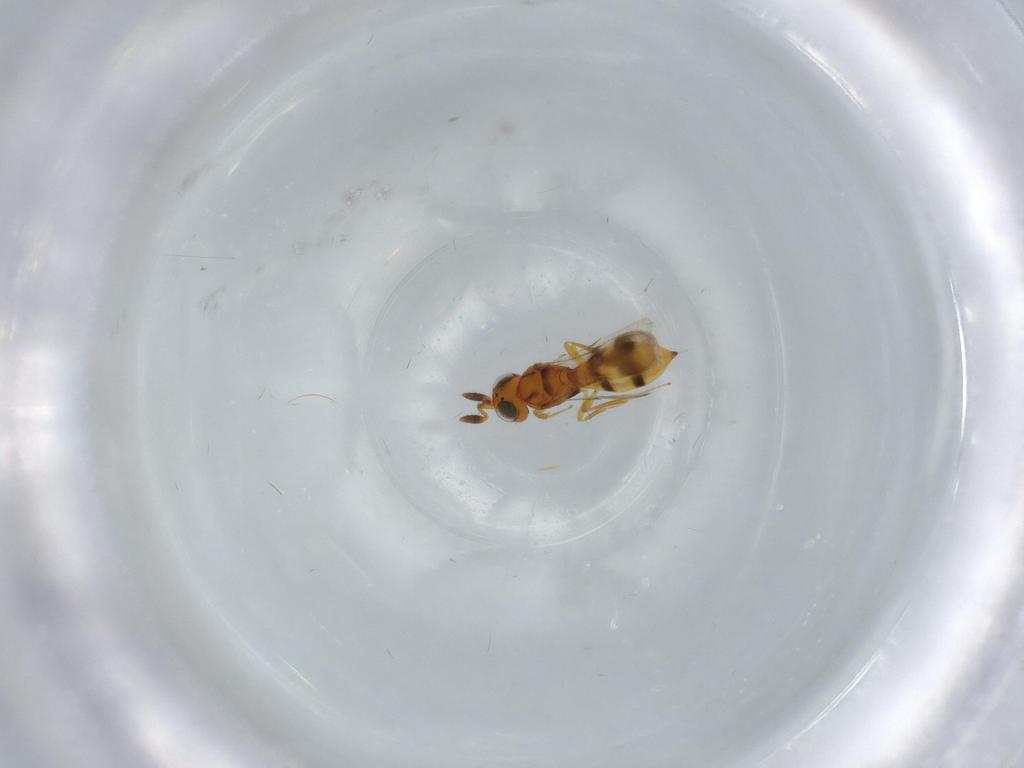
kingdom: Animalia
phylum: Arthropoda
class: Insecta
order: Hymenoptera
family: Scelionidae
